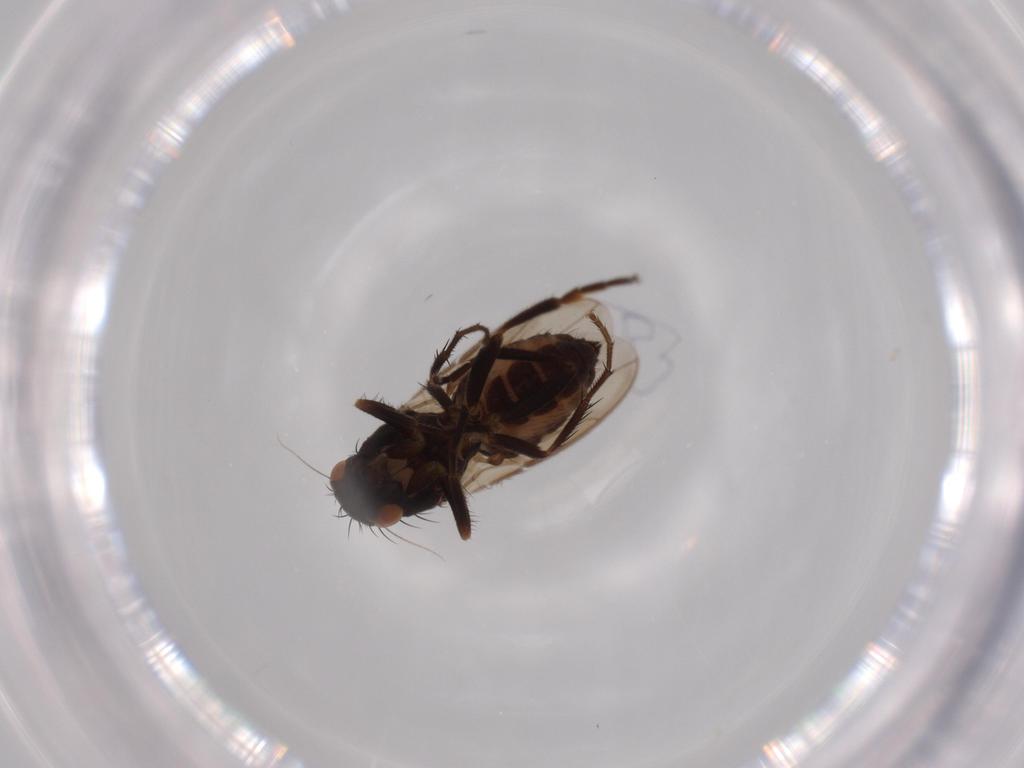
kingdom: Animalia
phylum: Arthropoda
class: Insecta
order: Diptera
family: Sphaeroceridae
